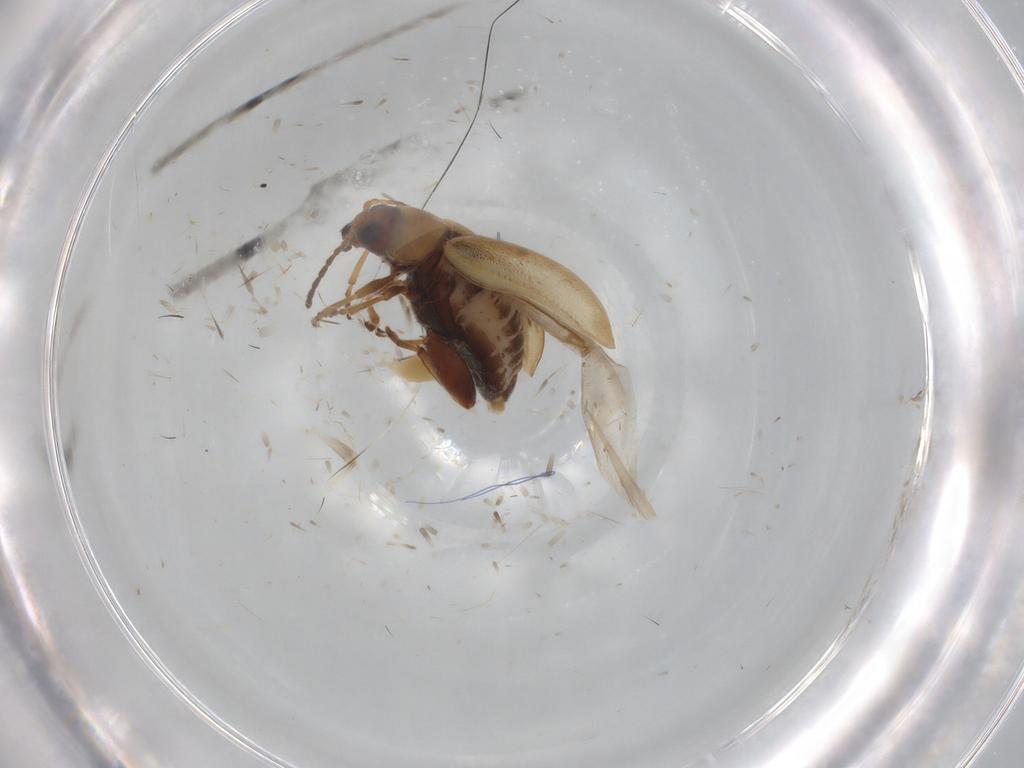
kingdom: Animalia
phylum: Arthropoda
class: Insecta
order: Coleoptera
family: Chrysomelidae
